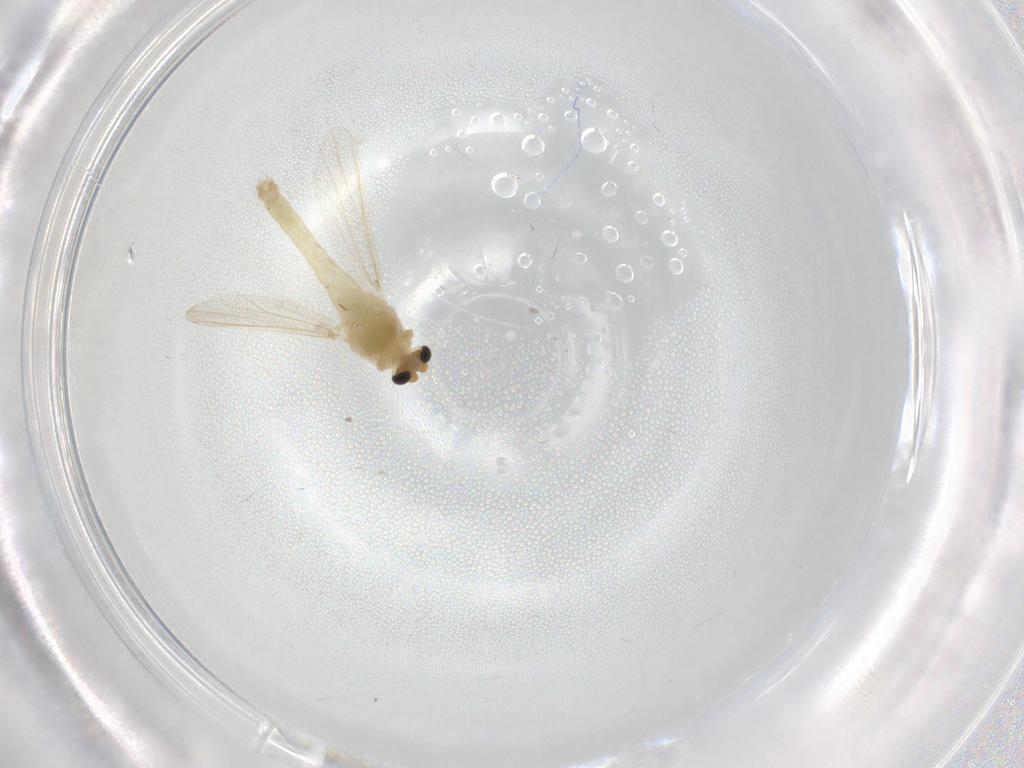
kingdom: Animalia
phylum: Arthropoda
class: Insecta
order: Diptera
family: Chironomidae
